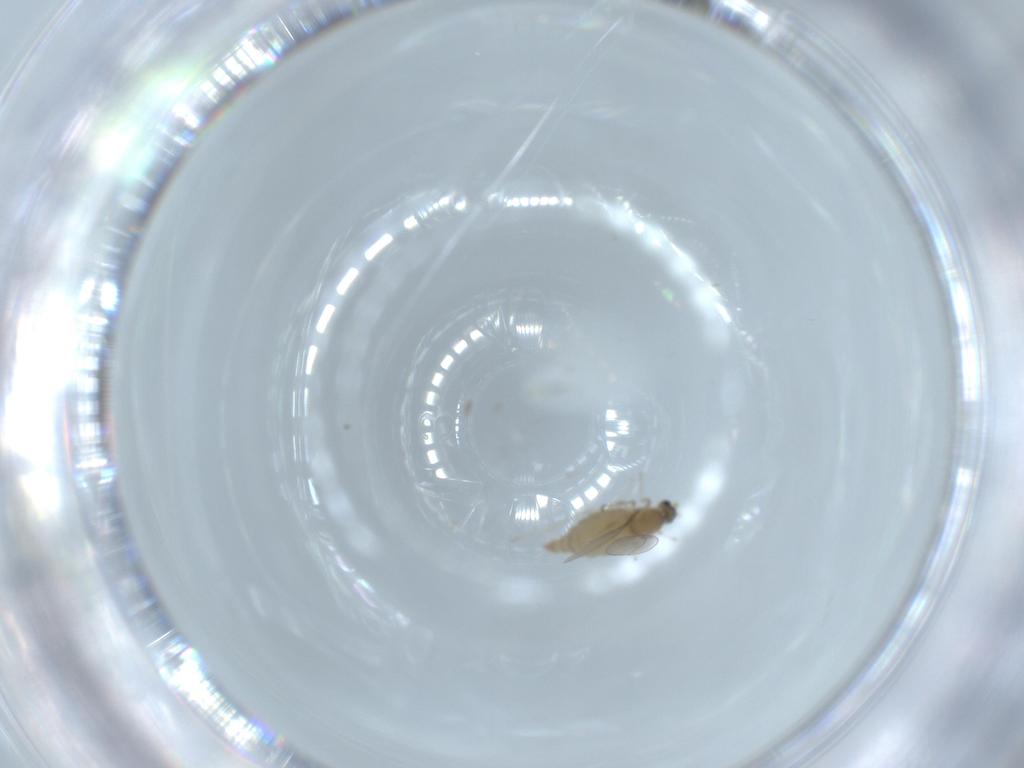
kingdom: Animalia
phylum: Arthropoda
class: Insecta
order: Diptera
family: Cecidomyiidae
